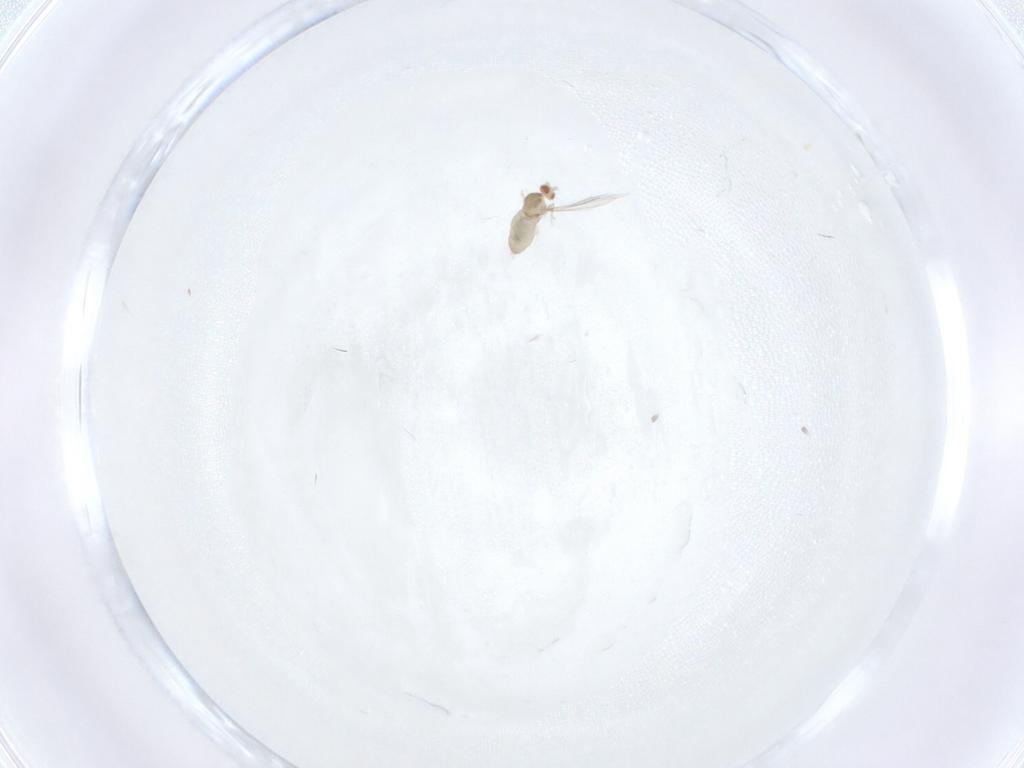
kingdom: Animalia
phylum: Arthropoda
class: Insecta
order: Diptera
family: Cecidomyiidae
